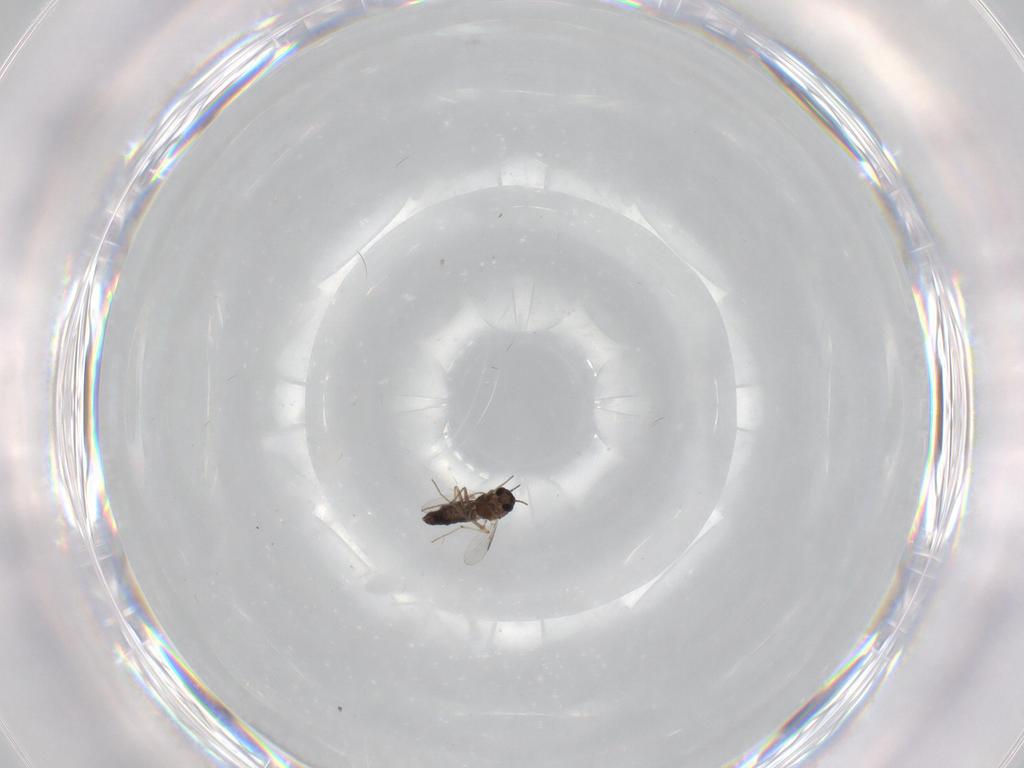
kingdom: Animalia
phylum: Arthropoda
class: Insecta
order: Diptera
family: Chironomidae
